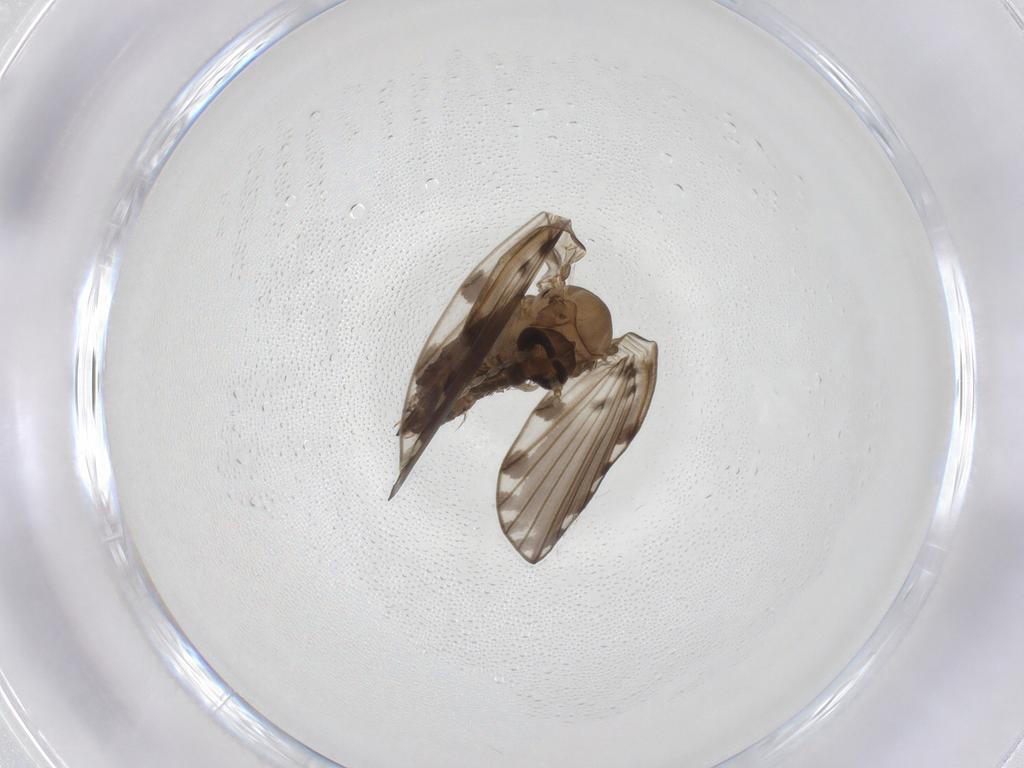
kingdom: Animalia
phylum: Arthropoda
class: Insecta
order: Diptera
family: Psychodidae
